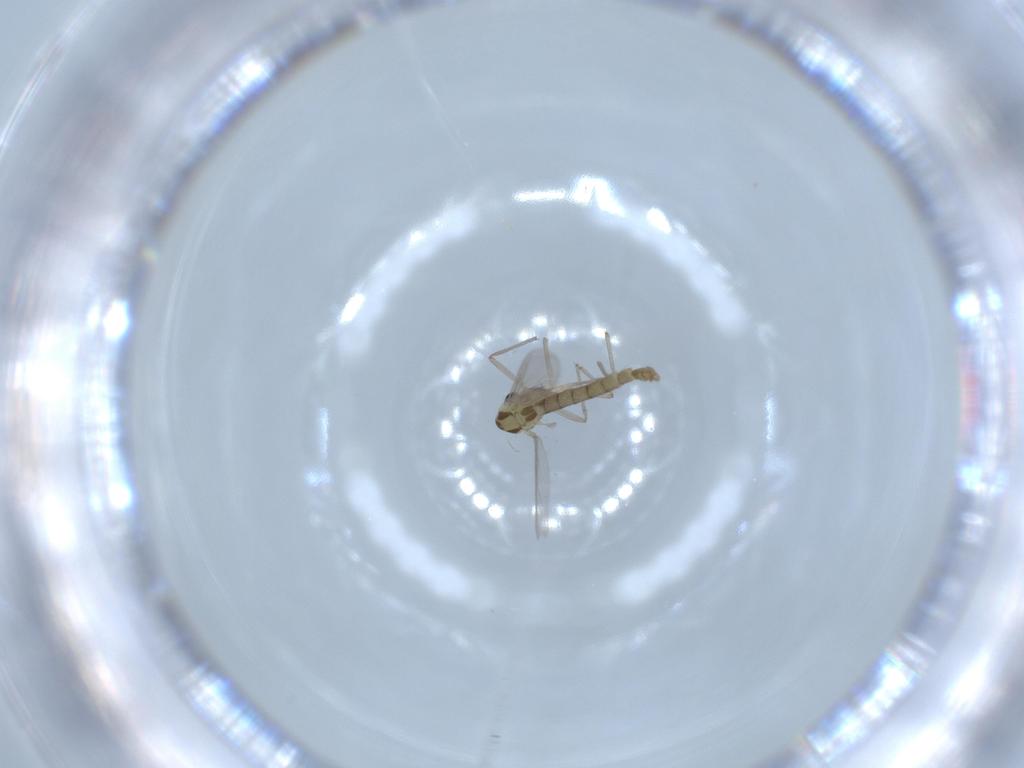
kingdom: Animalia
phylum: Arthropoda
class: Insecta
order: Diptera
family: Chironomidae
